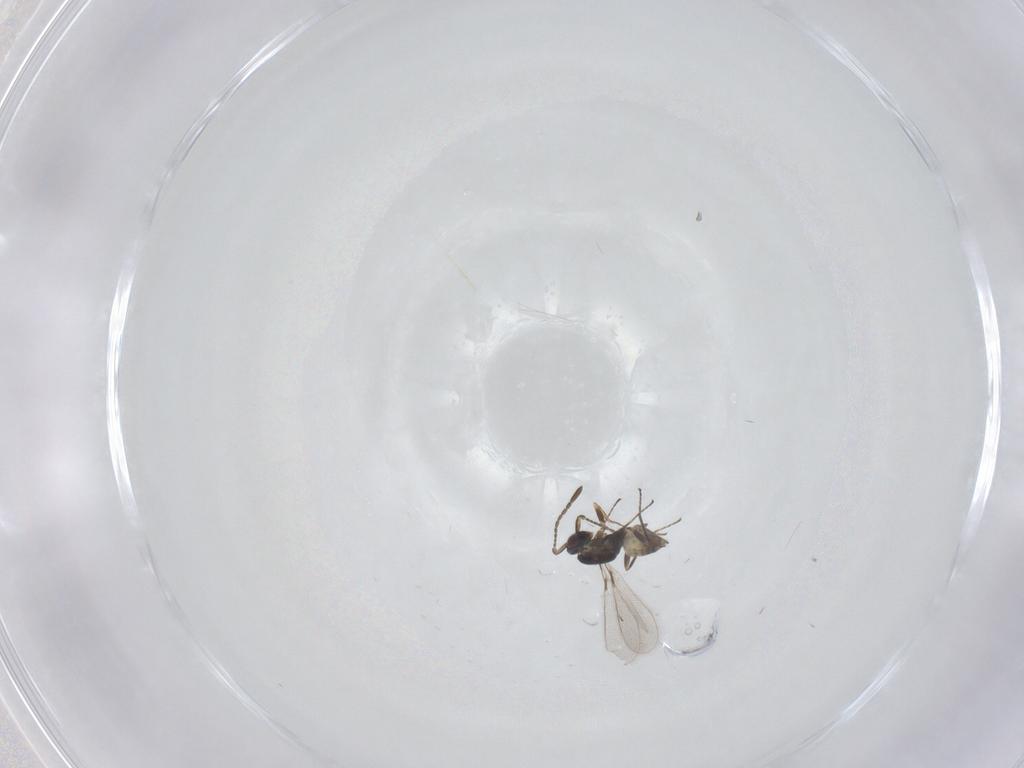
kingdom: Animalia
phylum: Arthropoda
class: Insecta
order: Hymenoptera
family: Mymaridae
